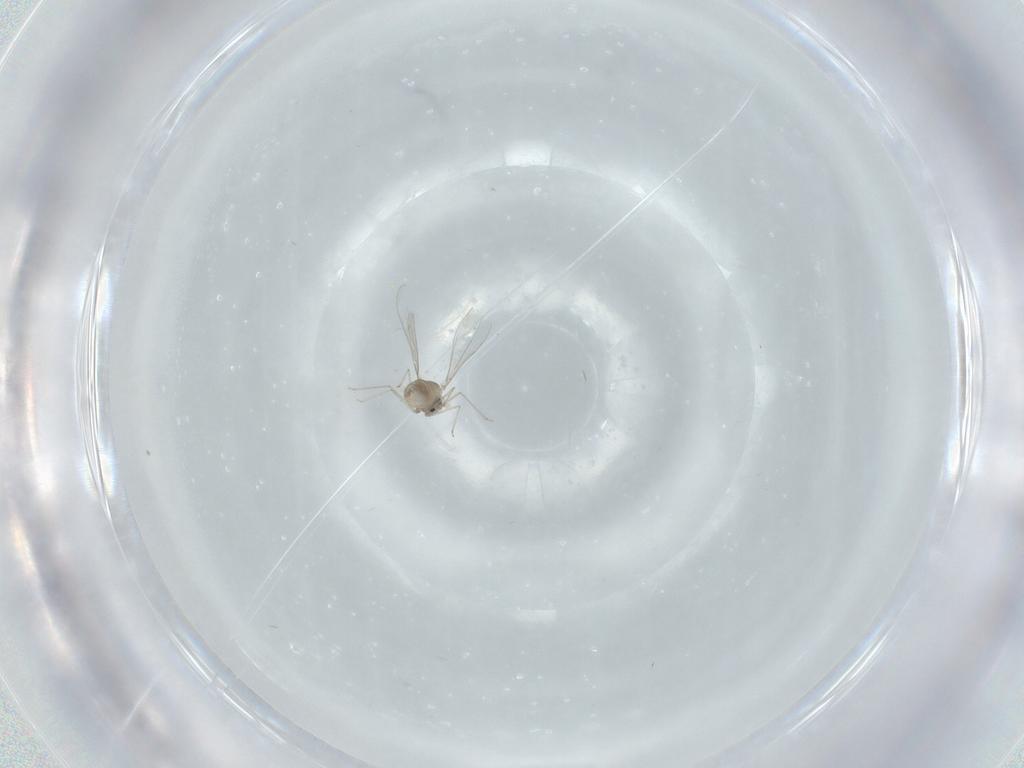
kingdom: Animalia
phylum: Arthropoda
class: Insecta
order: Diptera
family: Cecidomyiidae
